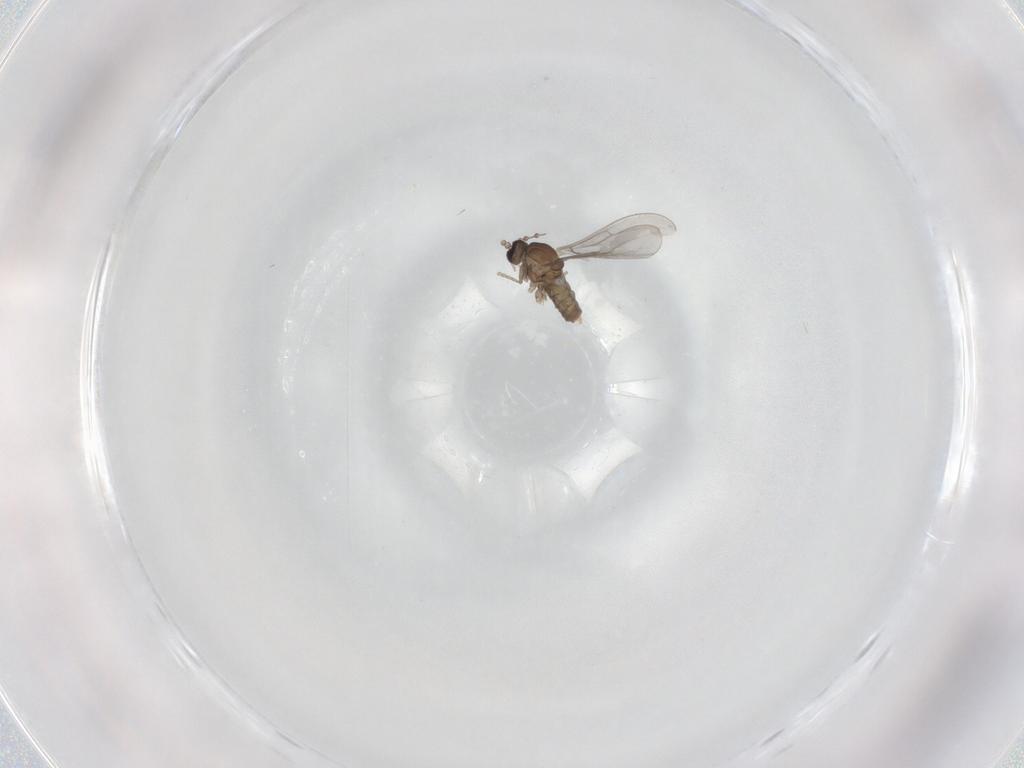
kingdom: Animalia
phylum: Arthropoda
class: Insecta
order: Diptera
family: Cecidomyiidae
